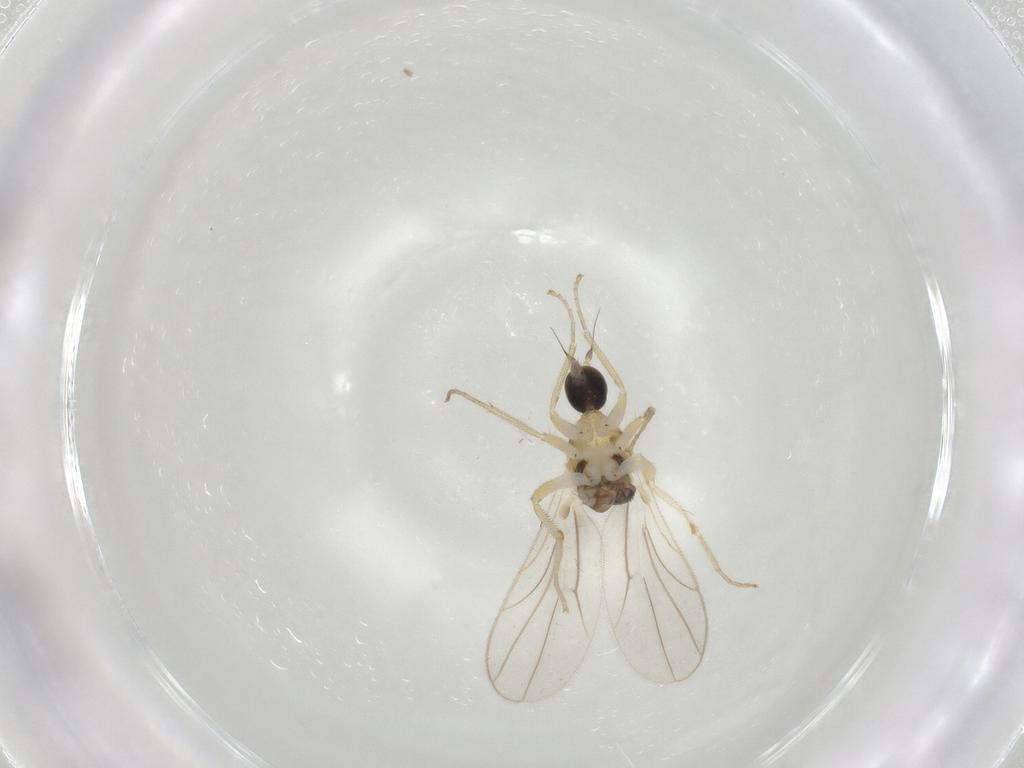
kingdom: Animalia
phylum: Arthropoda
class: Insecta
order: Diptera
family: Hybotidae
